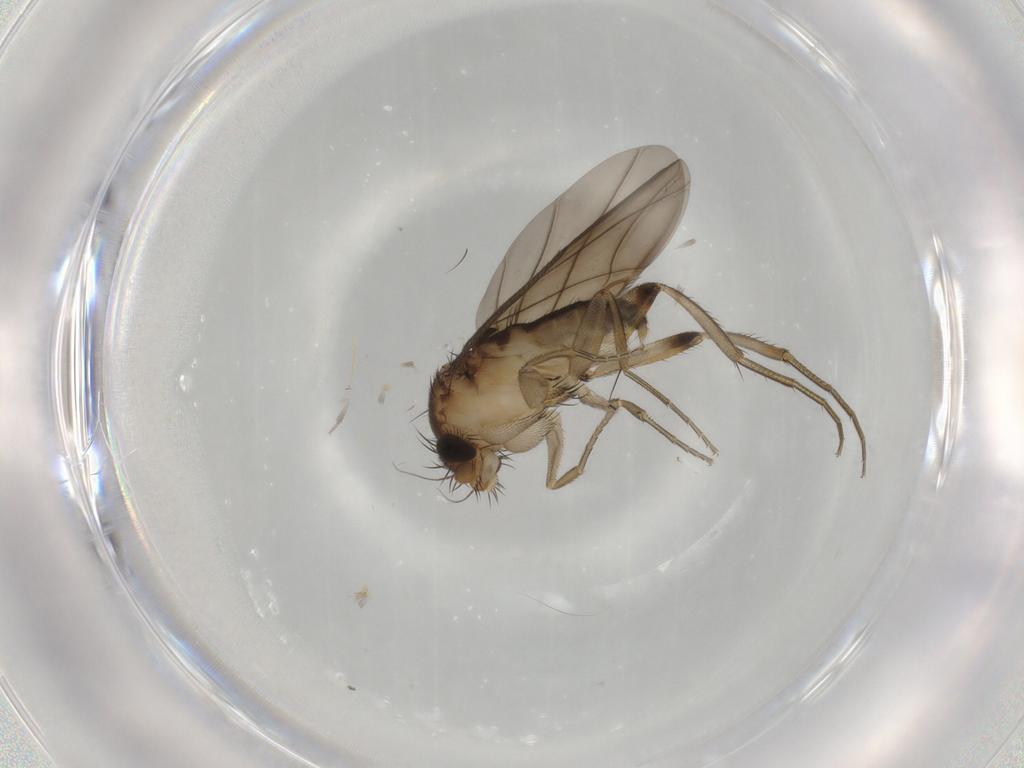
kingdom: Animalia
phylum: Arthropoda
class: Insecta
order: Diptera
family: Phoridae
